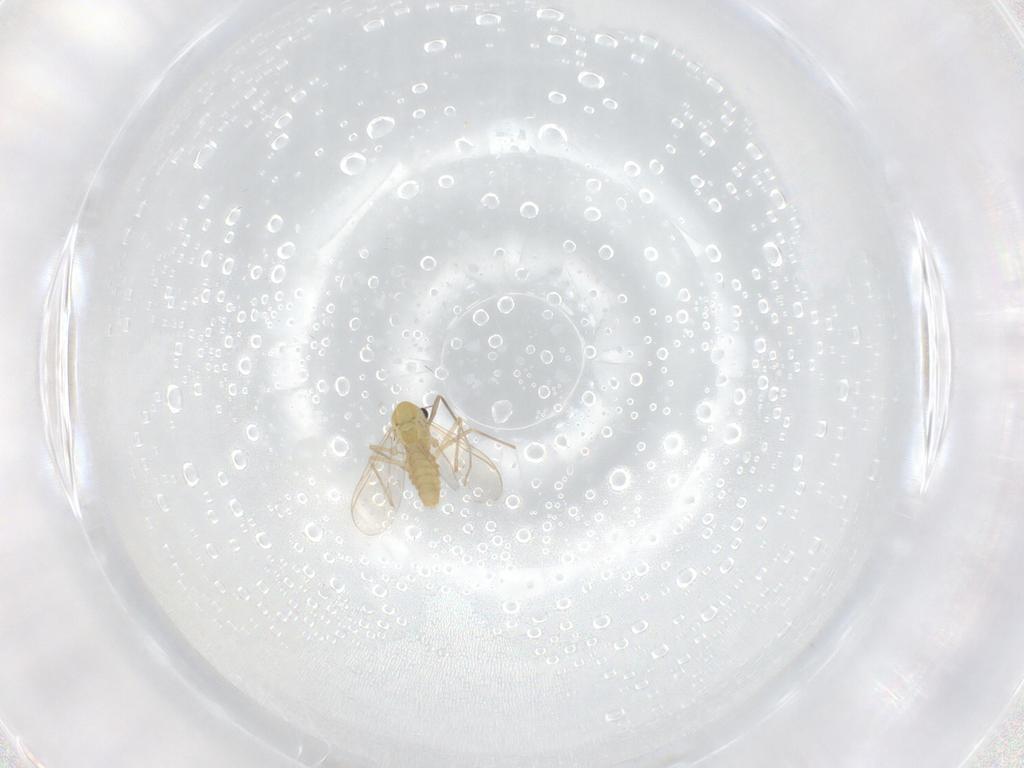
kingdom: Animalia
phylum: Arthropoda
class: Insecta
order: Diptera
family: Chironomidae
